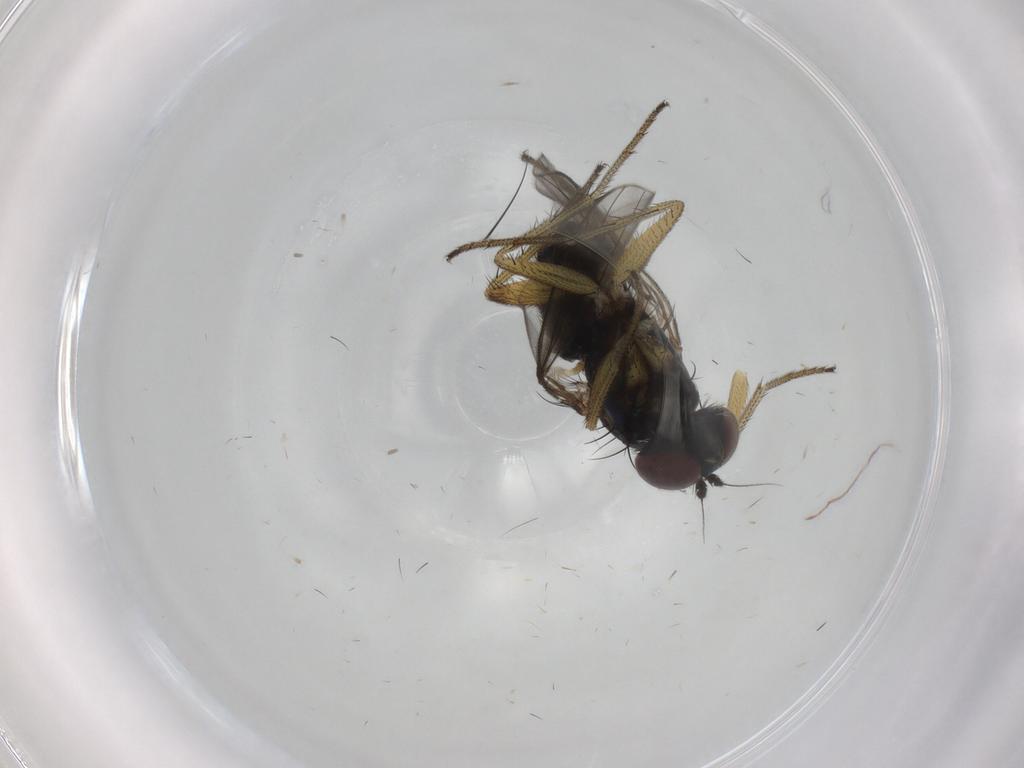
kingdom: Animalia
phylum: Arthropoda
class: Insecta
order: Diptera
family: Dolichopodidae
